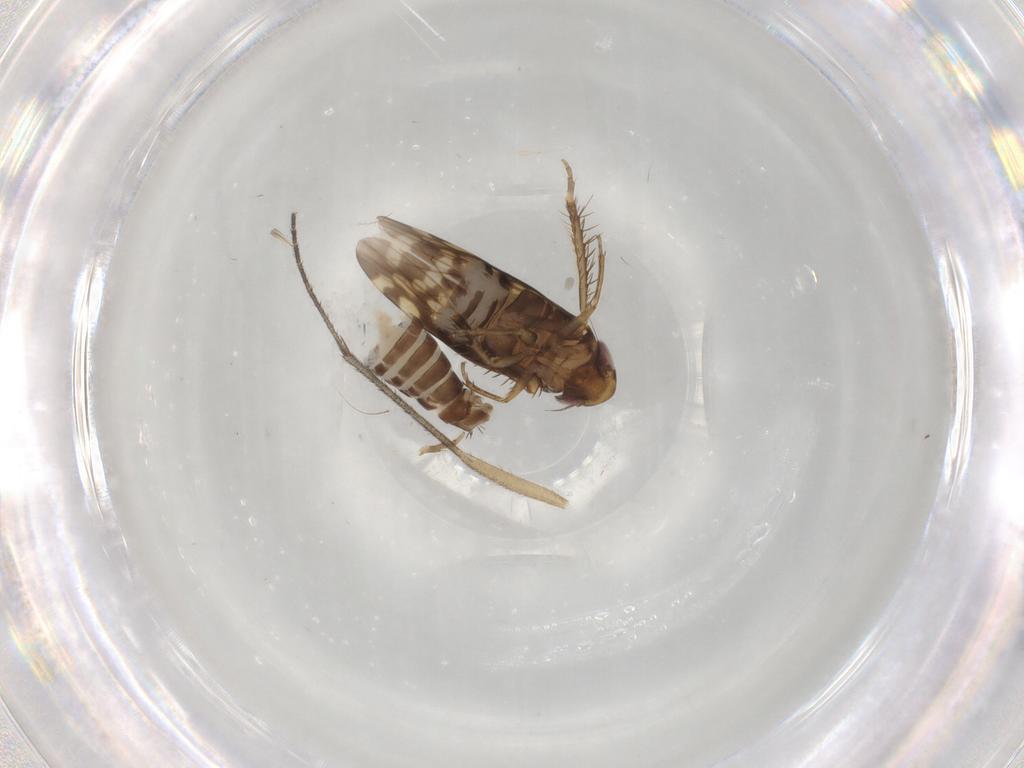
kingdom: Animalia
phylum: Arthropoda
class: Insecta
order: Hemiptera
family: Cicadellidae
